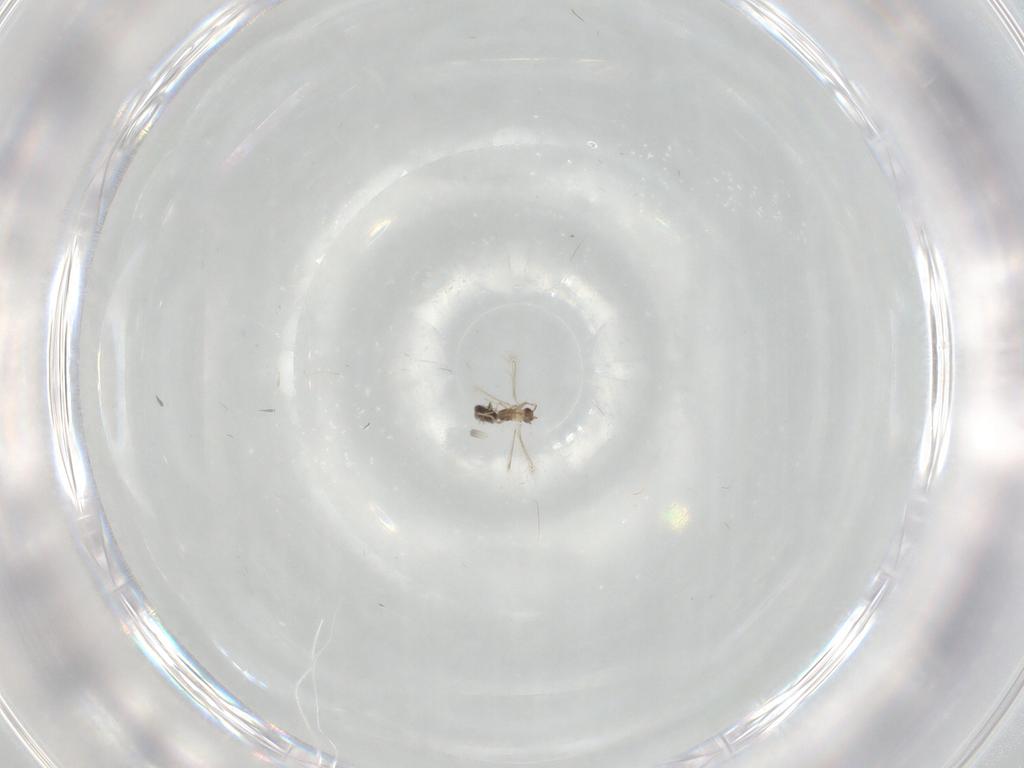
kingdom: Animalia
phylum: Arthropoda
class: Insecta
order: Hymenoptera
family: Mymaridae
